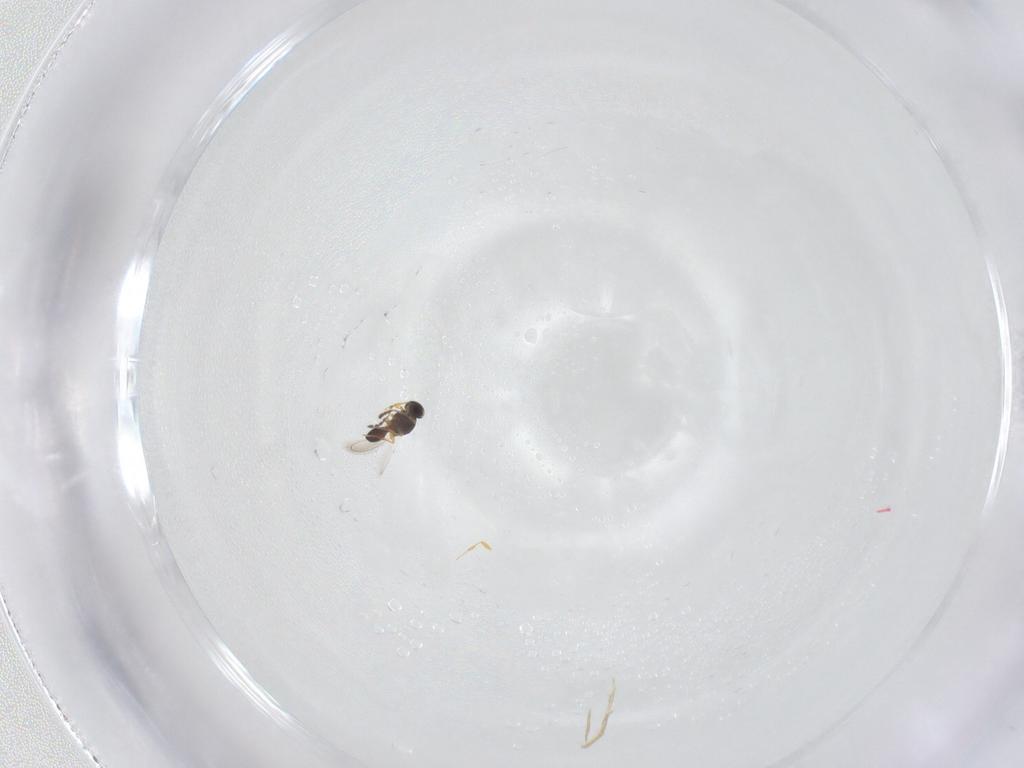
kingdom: Animalia
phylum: Arthropoda
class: Insecta
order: Hymenoptera
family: Platygastridae
